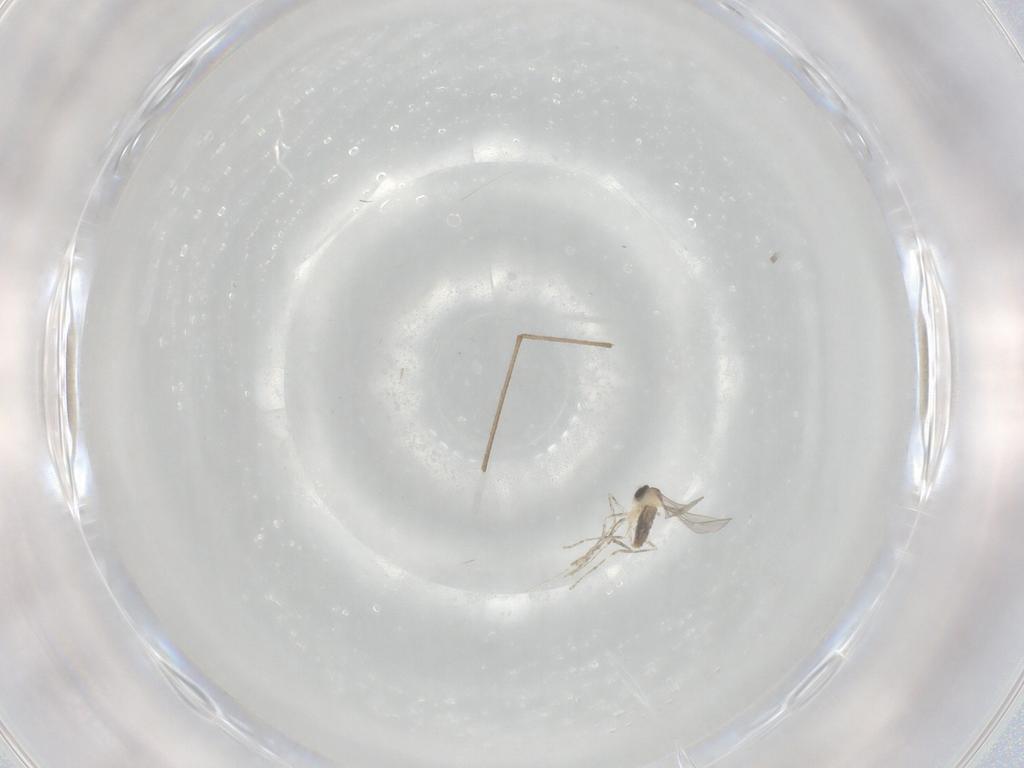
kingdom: Animalia
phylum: Arthropoda
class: Insecta
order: Diptera
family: Limoniidae
